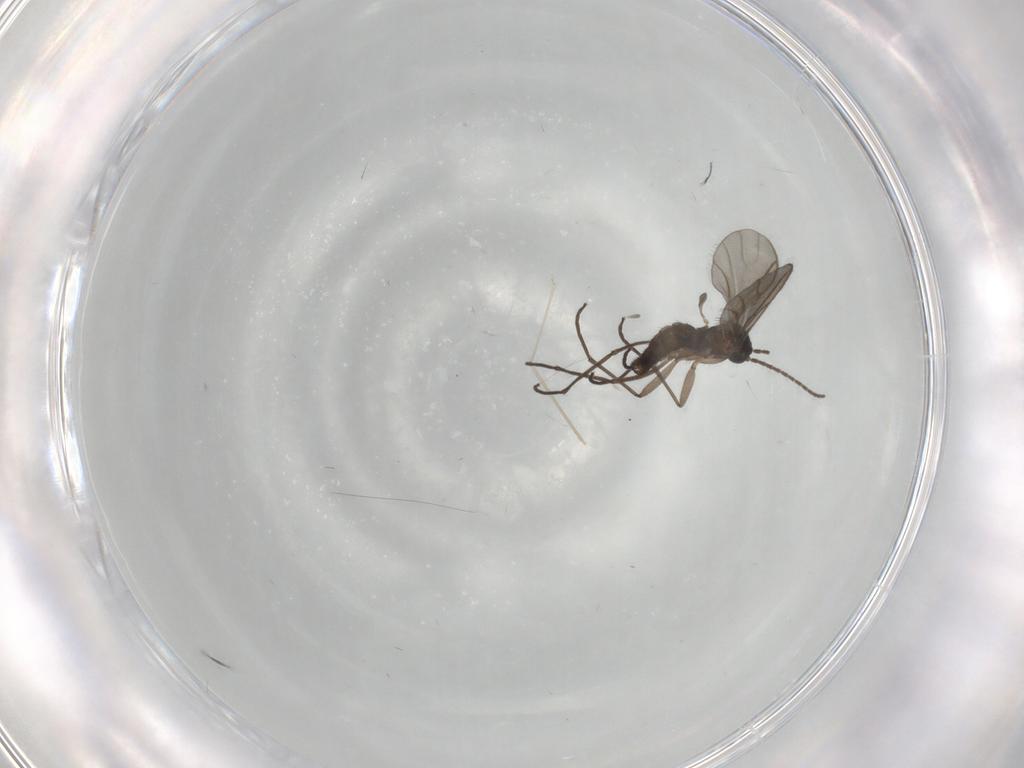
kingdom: Animalia
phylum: Arthropoda
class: Insecta
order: Diptera
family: Sciaridae
